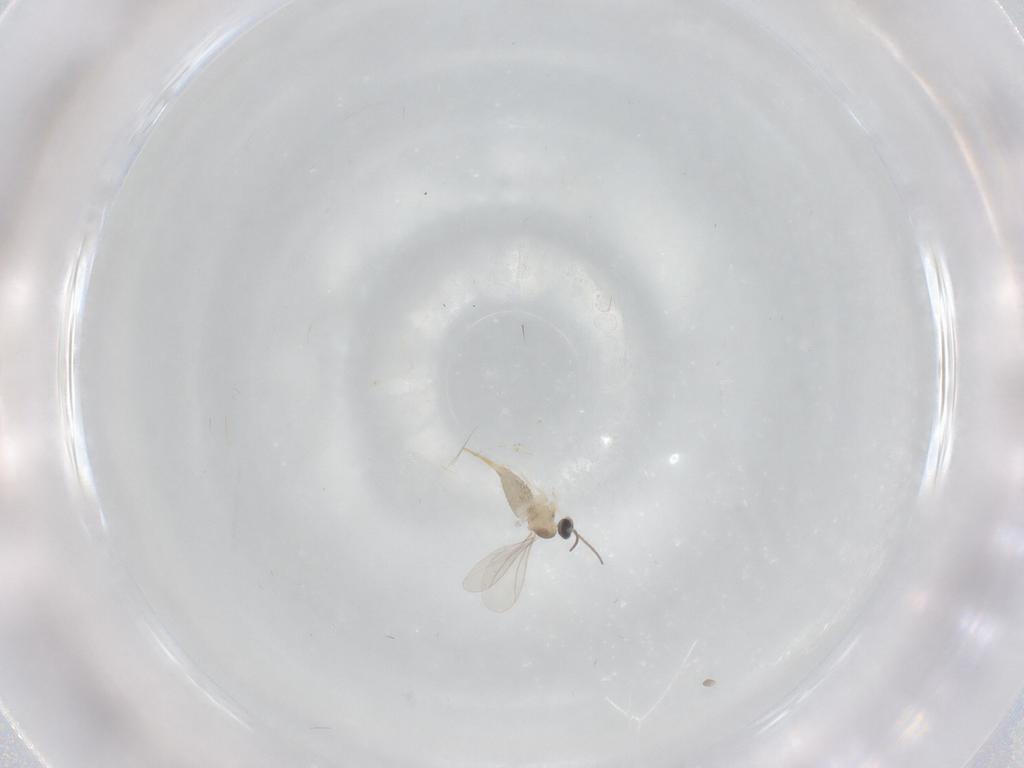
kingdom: Animalia
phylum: Arthropoda
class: Insecta
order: Diptera
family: Cecidomyiidae
